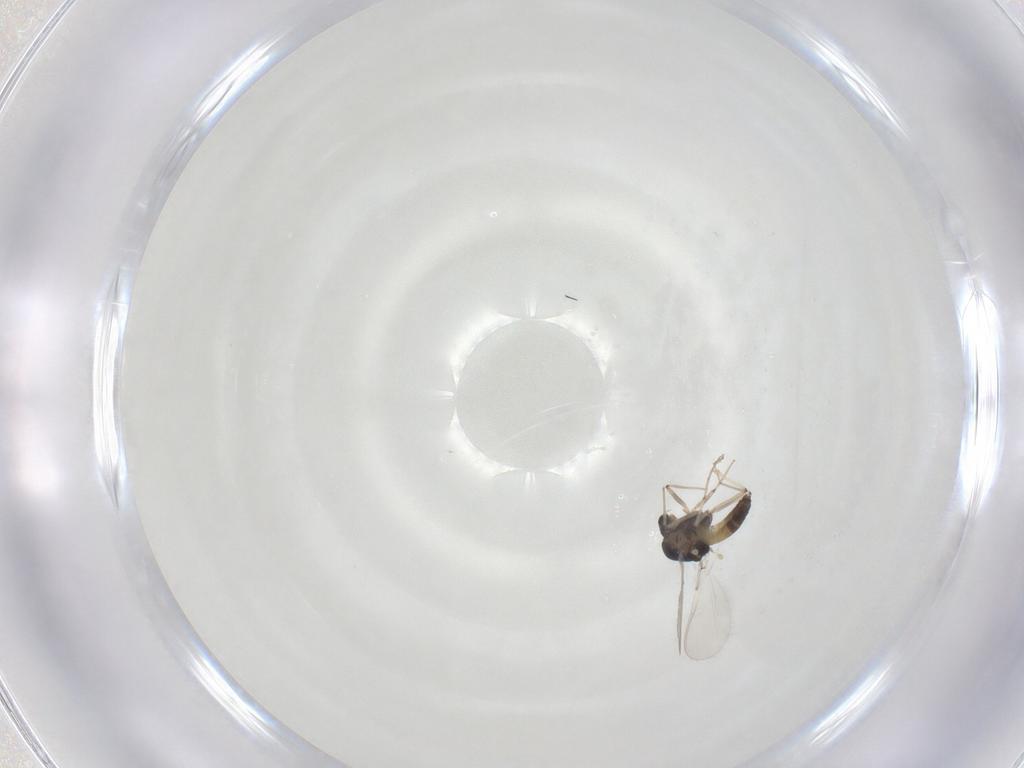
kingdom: Animalia
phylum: Arthropoda
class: Insecta
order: Diptera
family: Chironomidae
